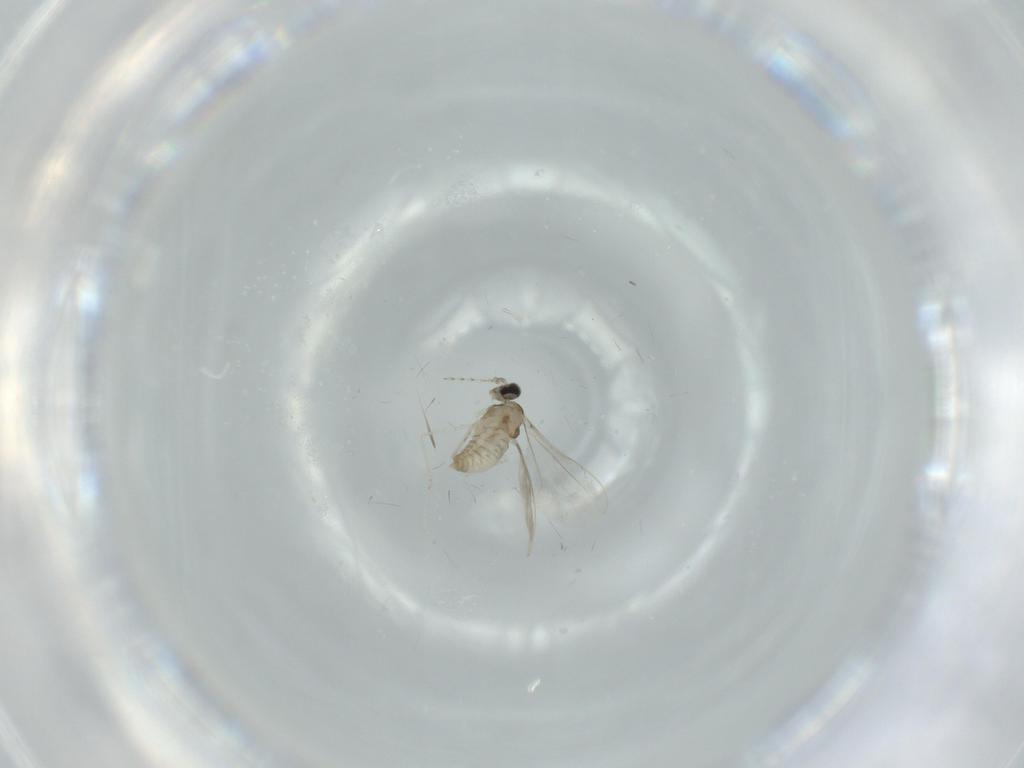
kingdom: Animalia
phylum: Arthropoda
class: Insecta
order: Diptera
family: Cecidomyiidae
